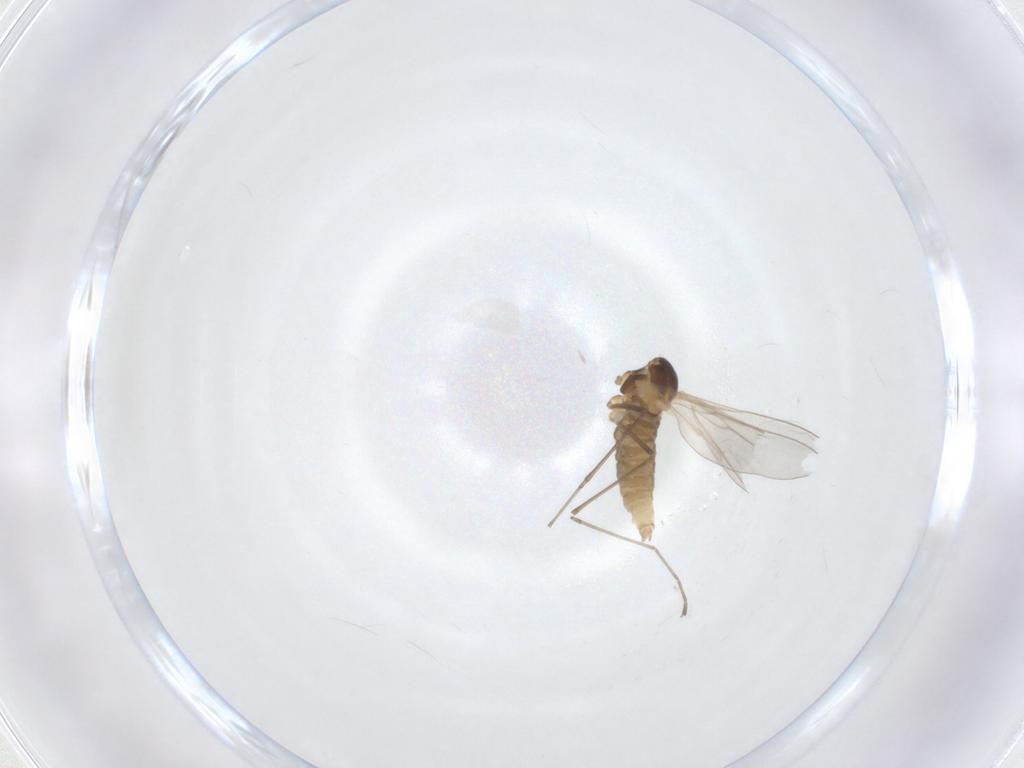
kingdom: Animalia
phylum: Arthropoda
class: Insecta
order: Diptera
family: Cecidomyiidae
